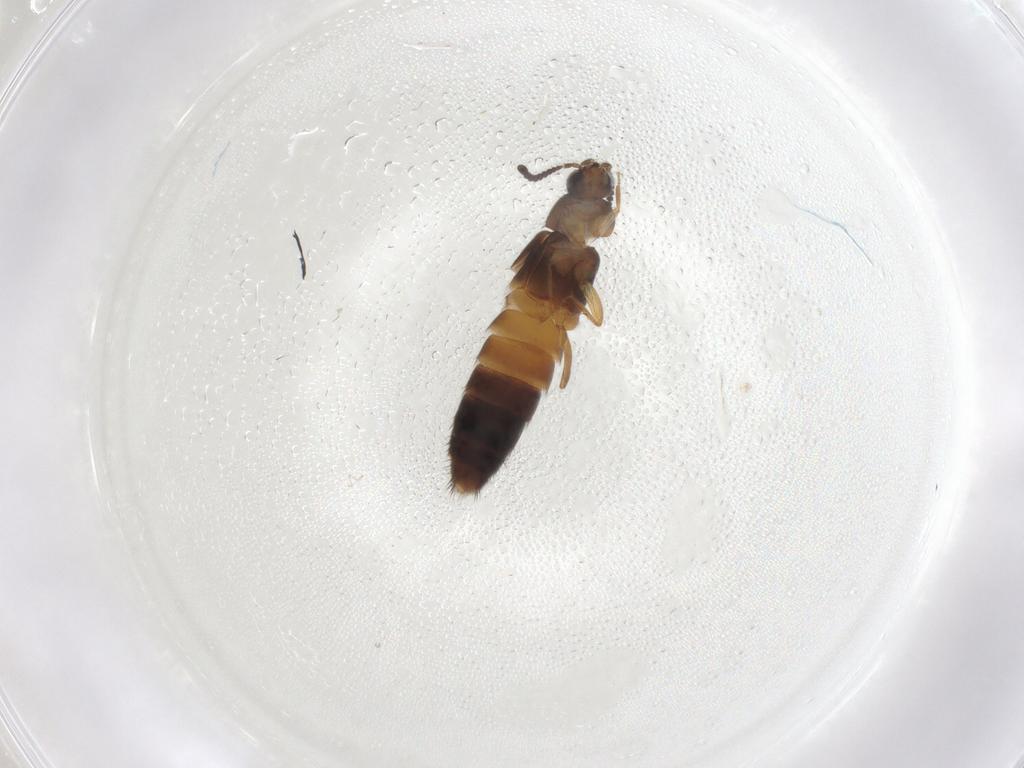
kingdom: Animalia
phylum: Arthropoda
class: Insecta
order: Coleoptera
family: Staphylinidae
